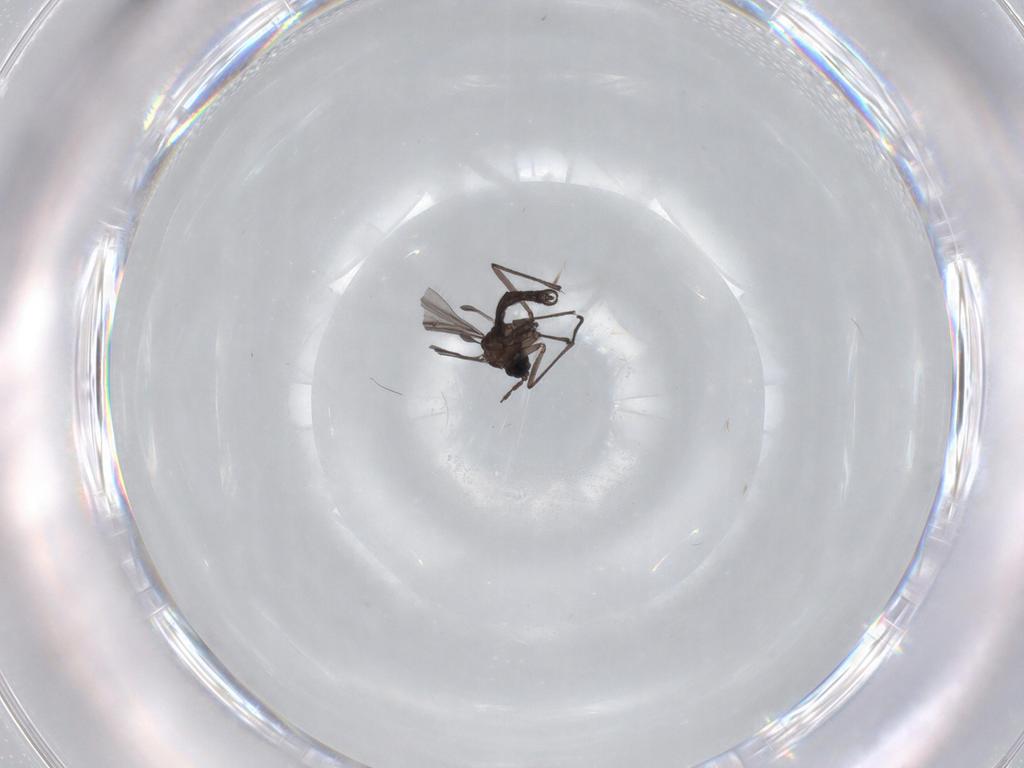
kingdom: Animalia
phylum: Arthropoda
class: Insecta
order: Diptera
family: Sciaridae
